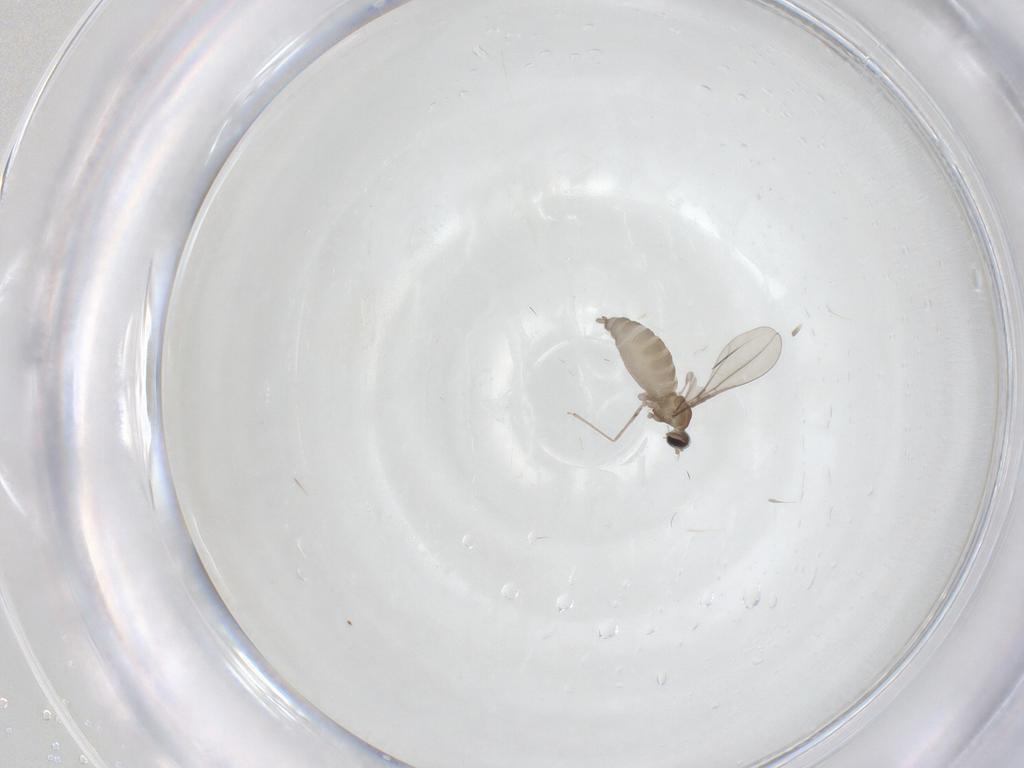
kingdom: Animalia
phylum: Arthropoda
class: Insecta
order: Diptera
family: Cecidomyiidae
